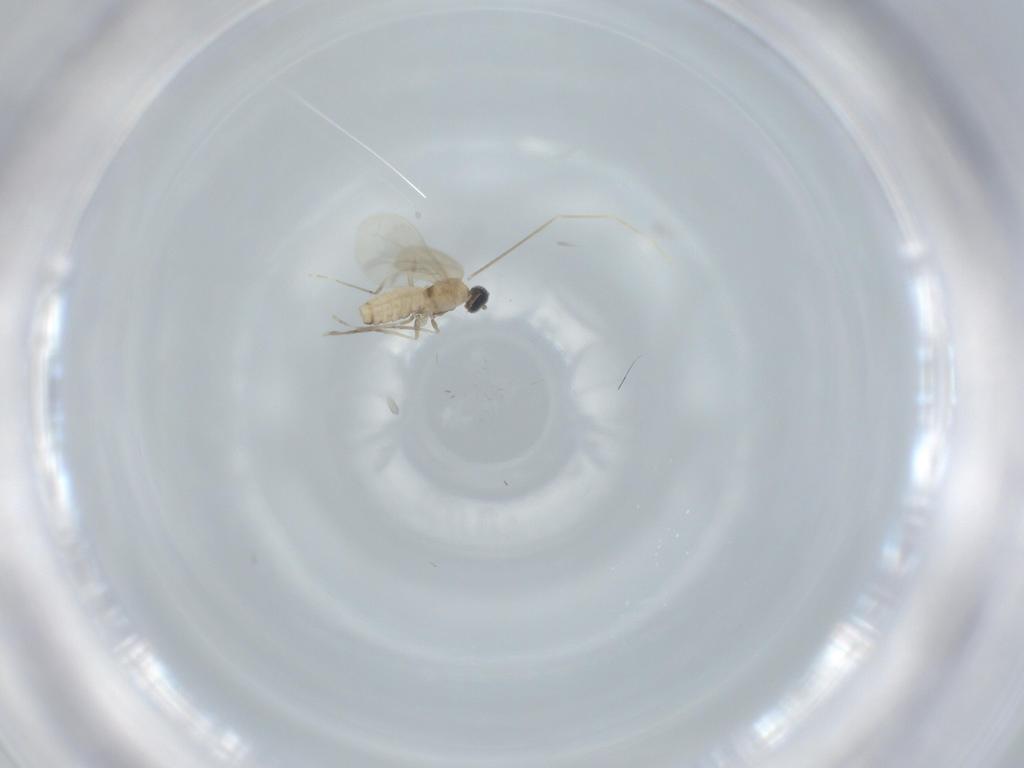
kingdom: Animalia
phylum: Arthropoda
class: Insecta
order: Diptera
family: Cecidomyiidae
